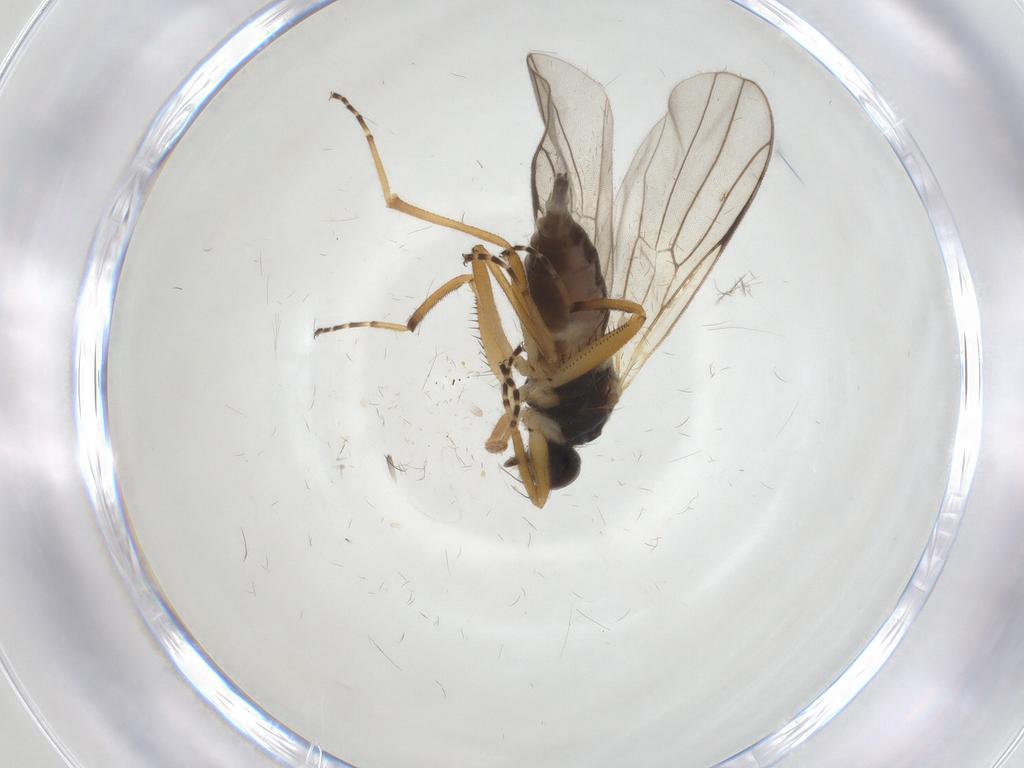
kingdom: Animalia
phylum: Arthropoda
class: Insecta
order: Diptera
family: Hybotidae
